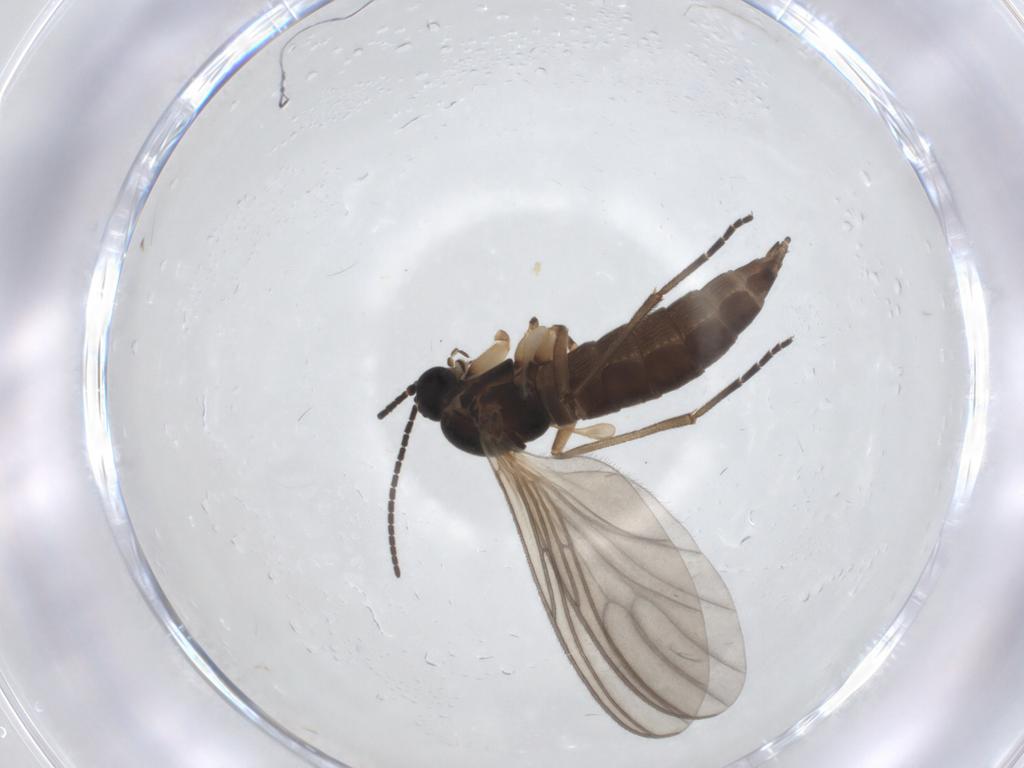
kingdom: Animalia
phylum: Arthropoda
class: Insecta
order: Diptera
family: Sciaridae
